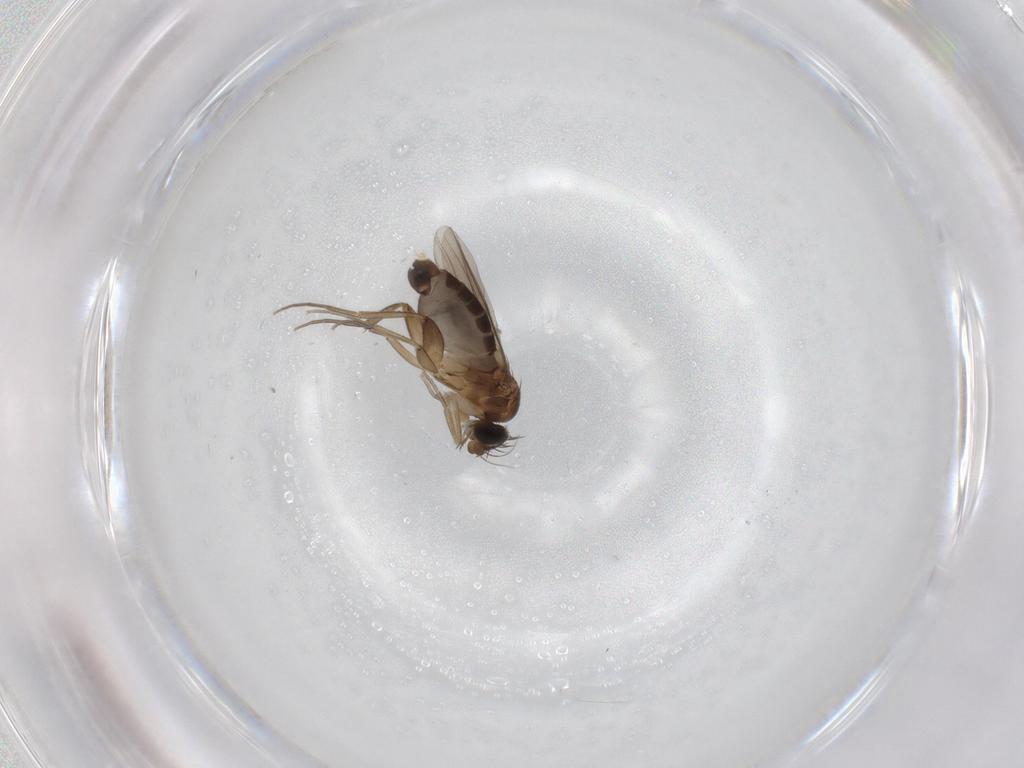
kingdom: Animalia
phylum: Arthropoda
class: Insecta
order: Diptera
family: Phoridae
